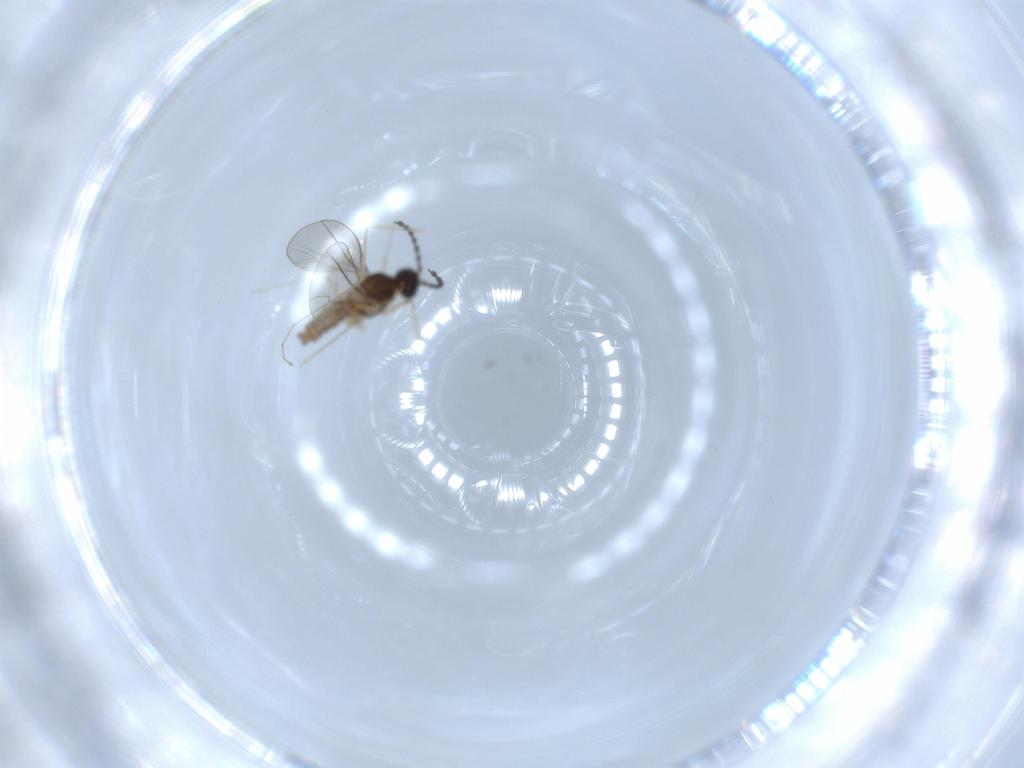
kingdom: Animalia
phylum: Arthropoda
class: Insecta
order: Diptera
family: Cecidomyiidae
